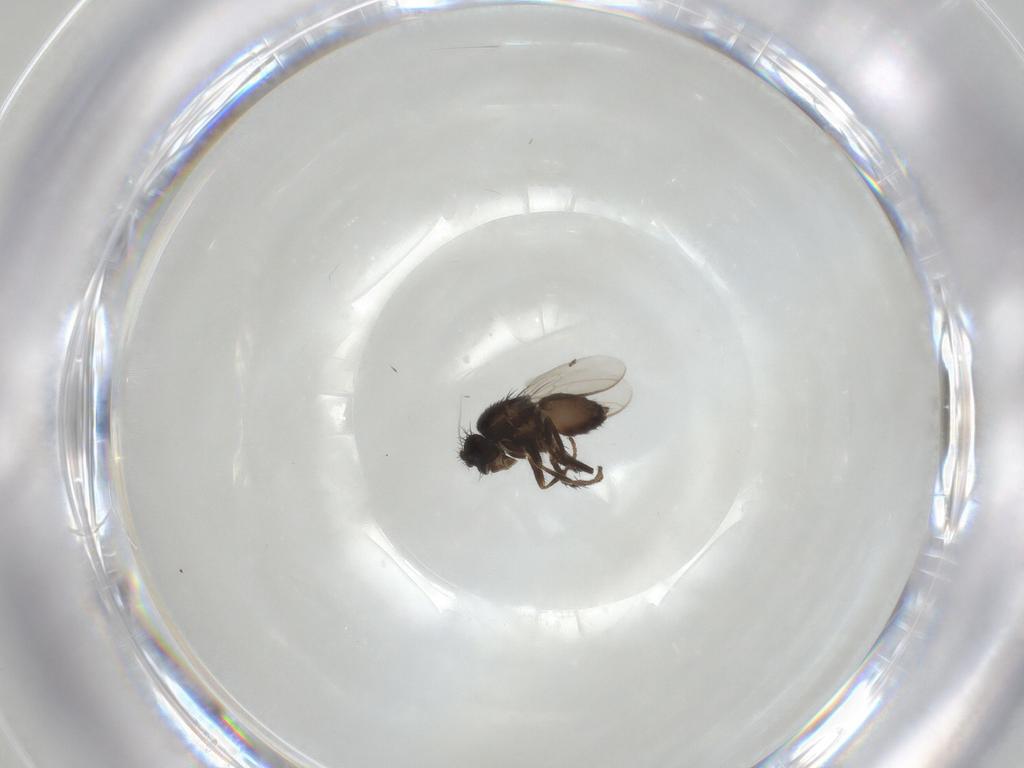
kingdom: Animalia
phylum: Arthropoda
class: Insecta
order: Diptera
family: Sphaeroceridae
